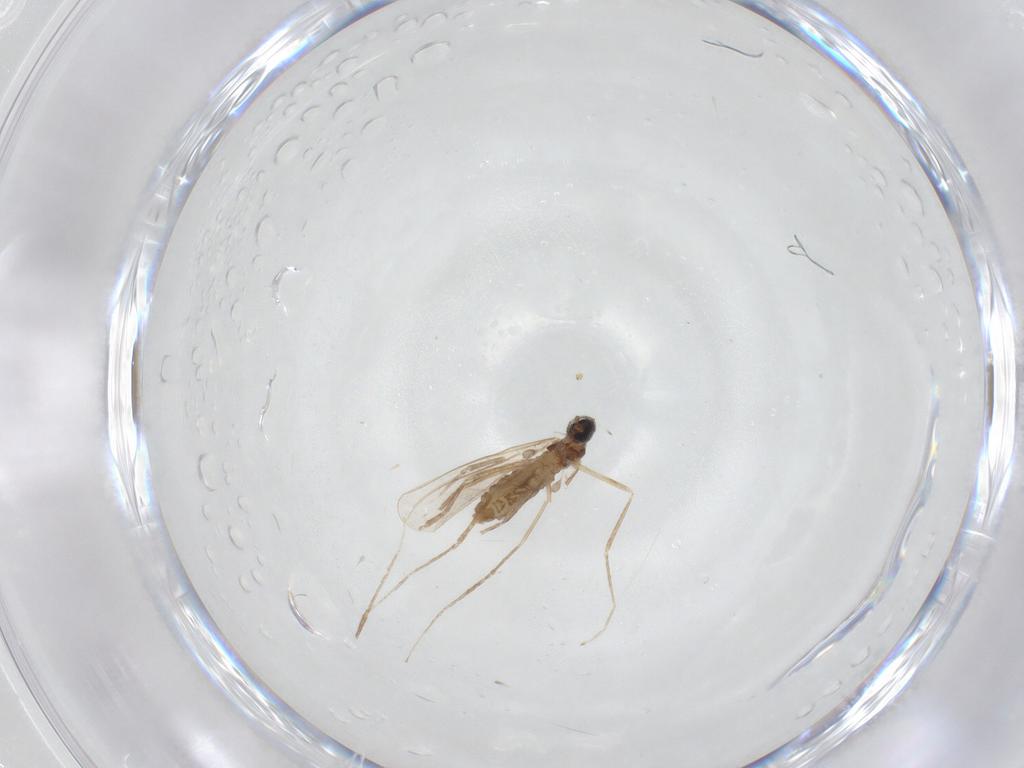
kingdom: Animalia
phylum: Arthropoda
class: Insecta
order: Diptera
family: Cecidomyiidae
